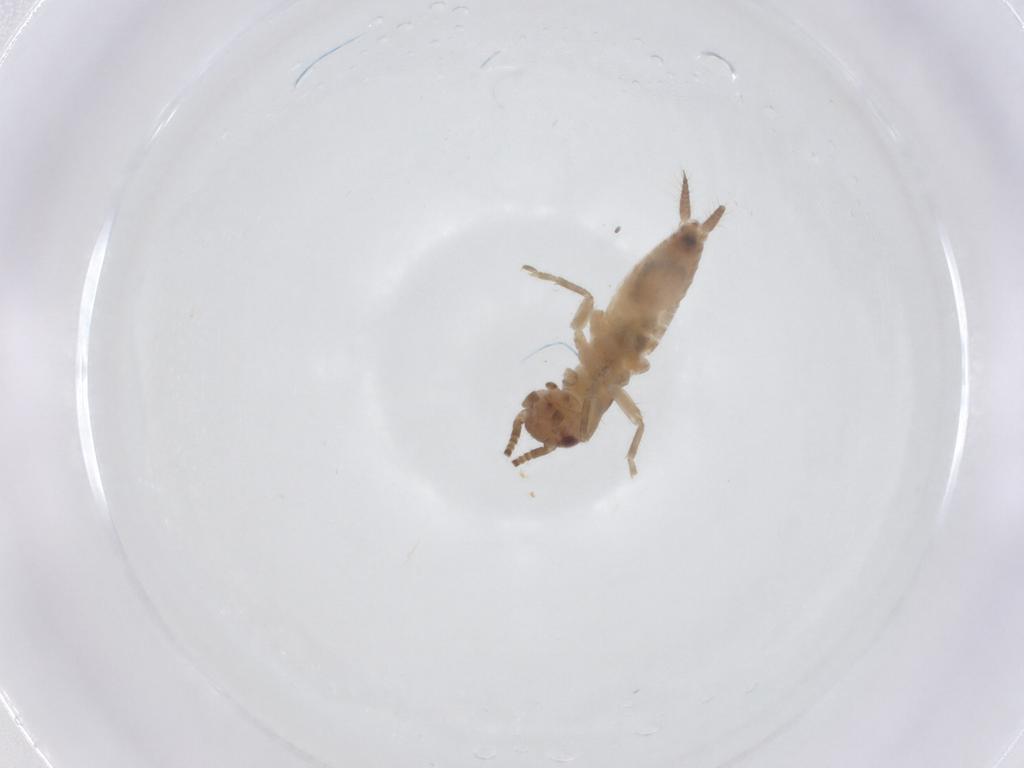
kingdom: Animalia
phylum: Arthropoda
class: Insecta
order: Orthoptera
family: Gryllidae
